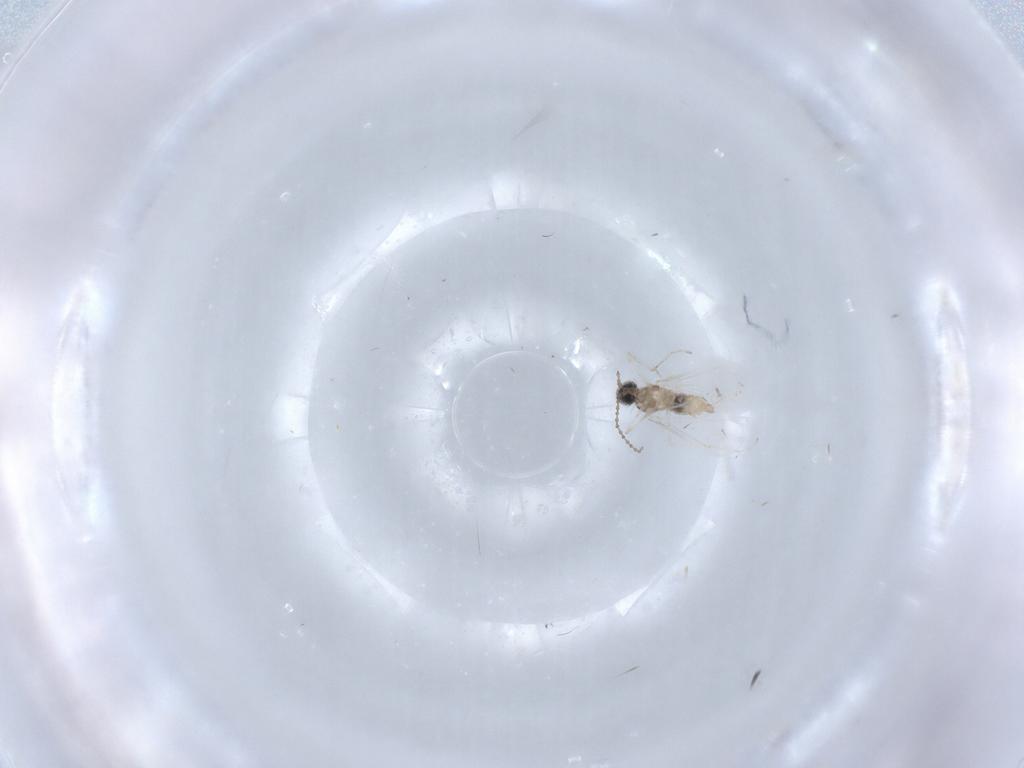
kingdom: Animalia
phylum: Arthropoda
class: Insecta
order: Diptera
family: Cecidomyiidae
